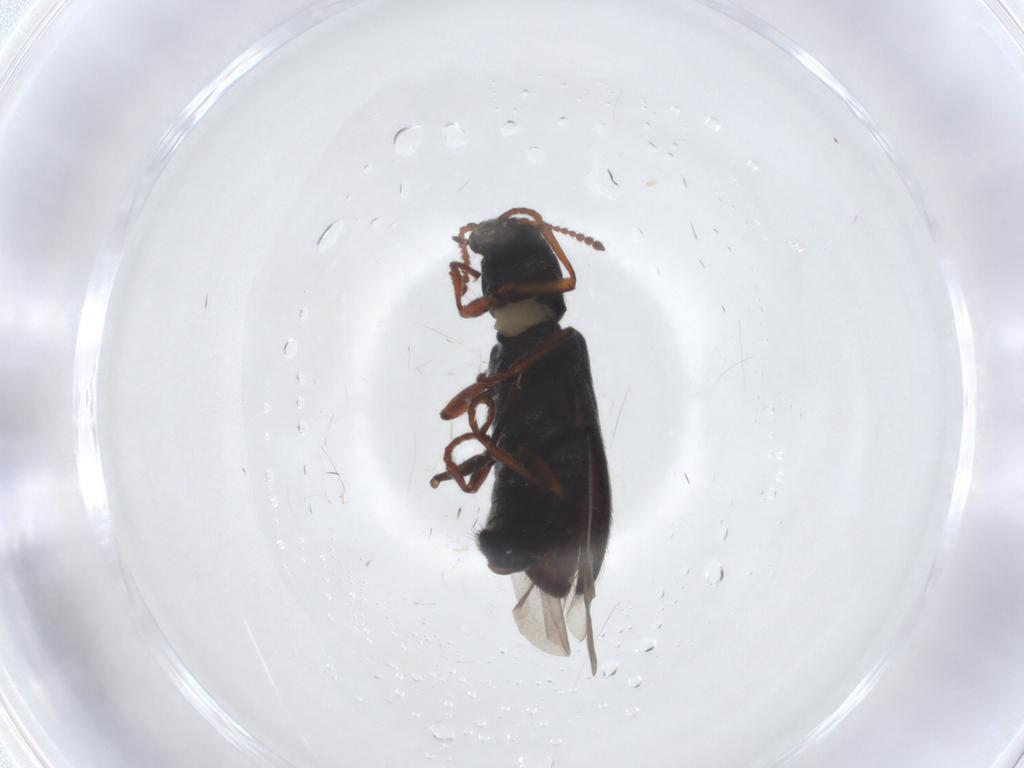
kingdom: Animalia
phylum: Arthropoda
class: Insecta
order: Coleoptera
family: Melyridae
